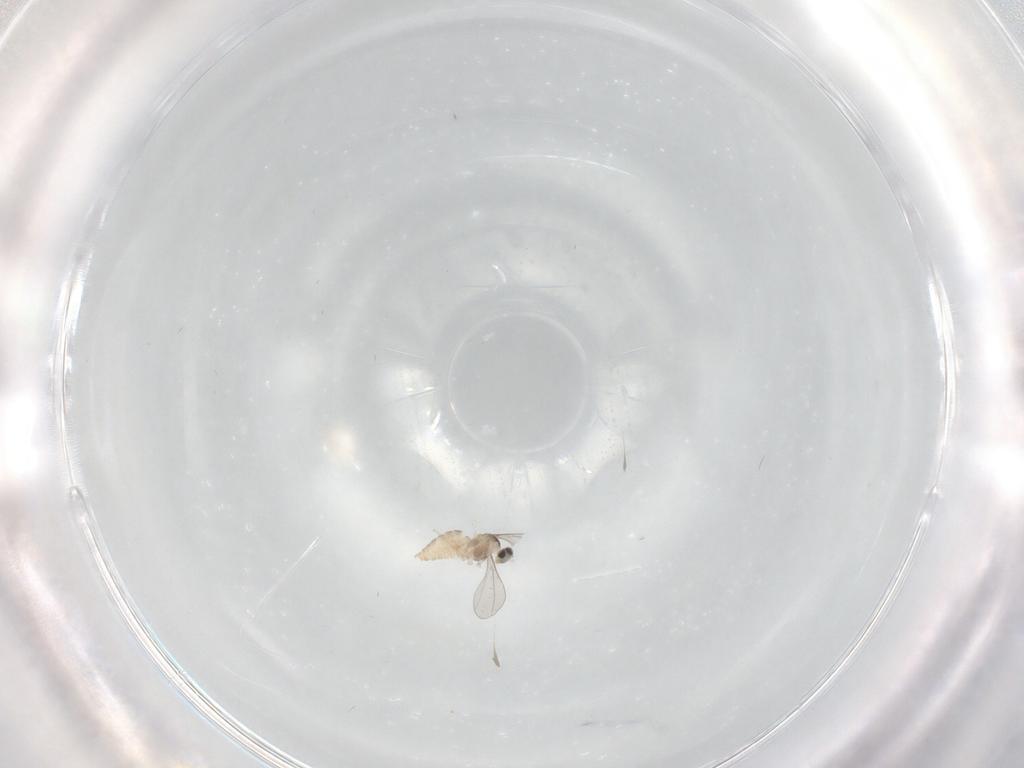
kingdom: Animalia
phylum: Arthropoda
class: Insecta
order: Diptera
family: Cecidomyiidae
